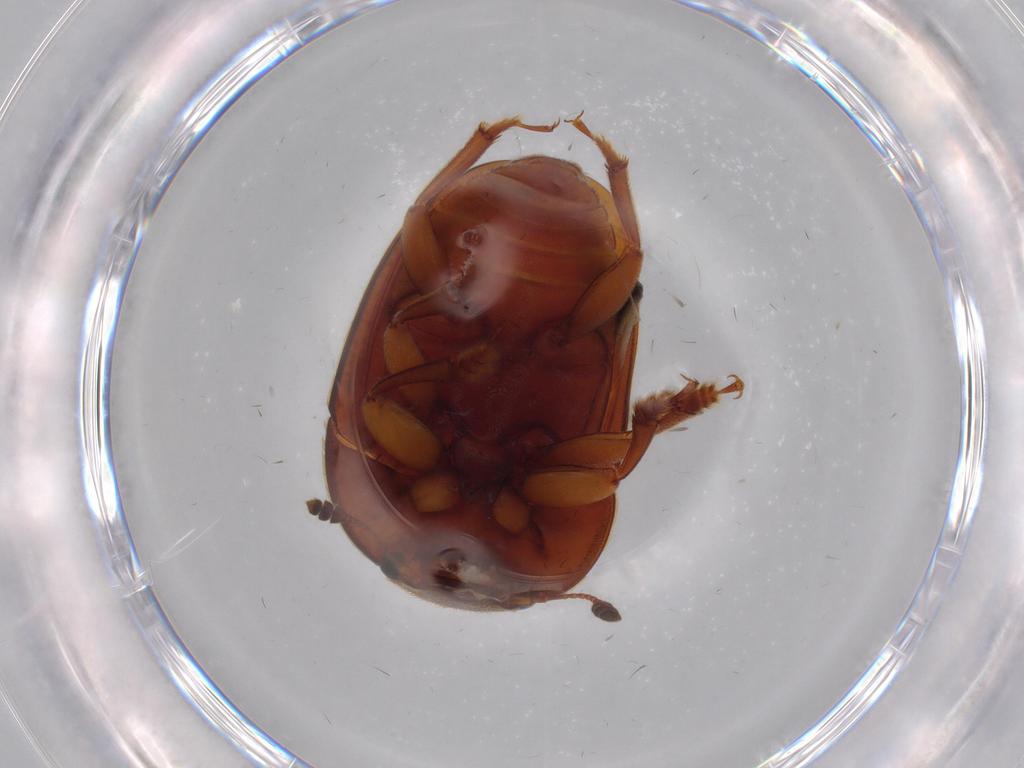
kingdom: Animalia
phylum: Arthropoda
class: Insecta
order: Coleoptera
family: Nitidulidae
